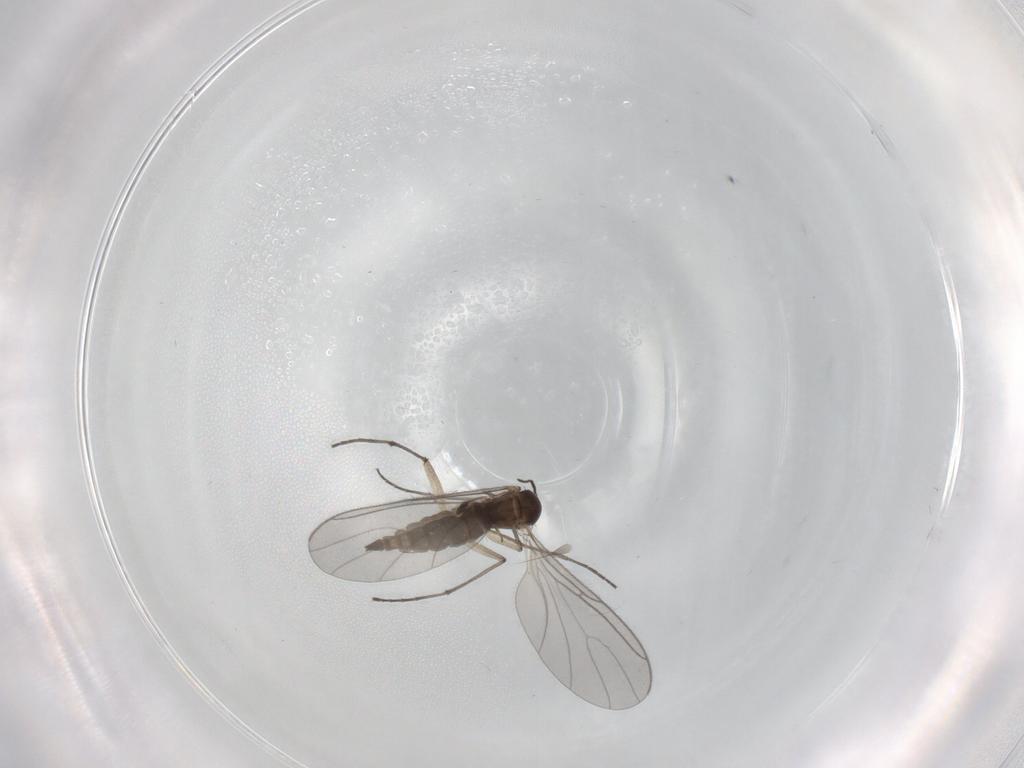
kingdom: Animalia
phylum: Arthropoda
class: Insecta
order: Diptera
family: Sciaridae
